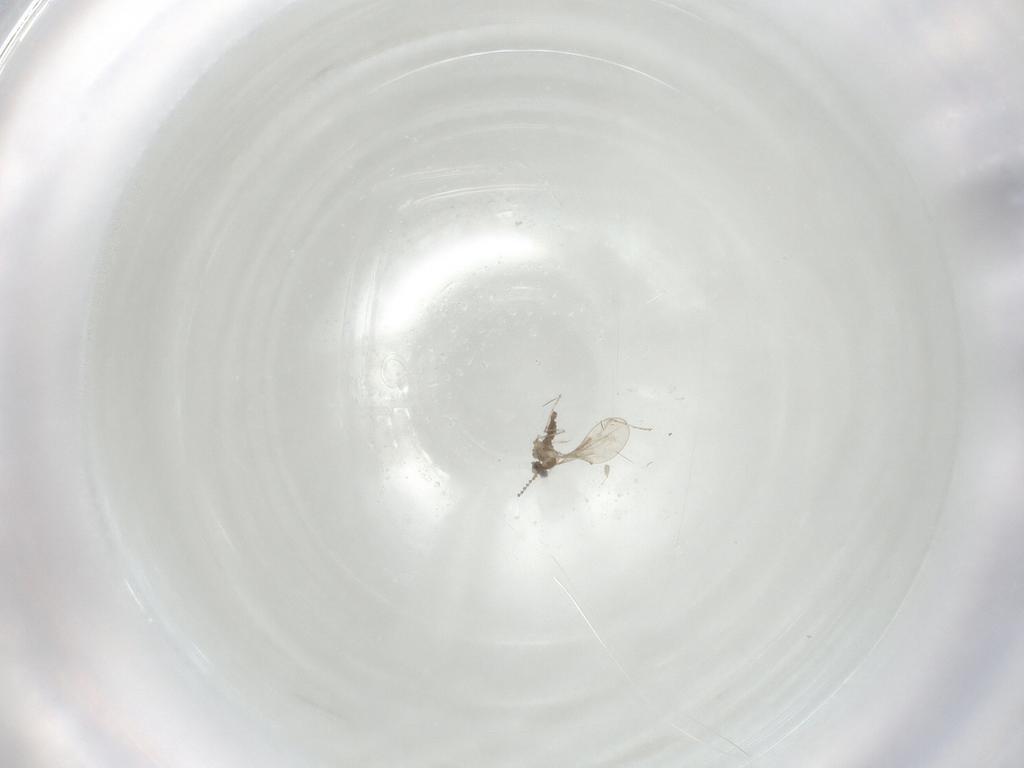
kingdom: Animalia
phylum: Arthropoda
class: Insecta
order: Diptera
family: Cecidomyiidae
